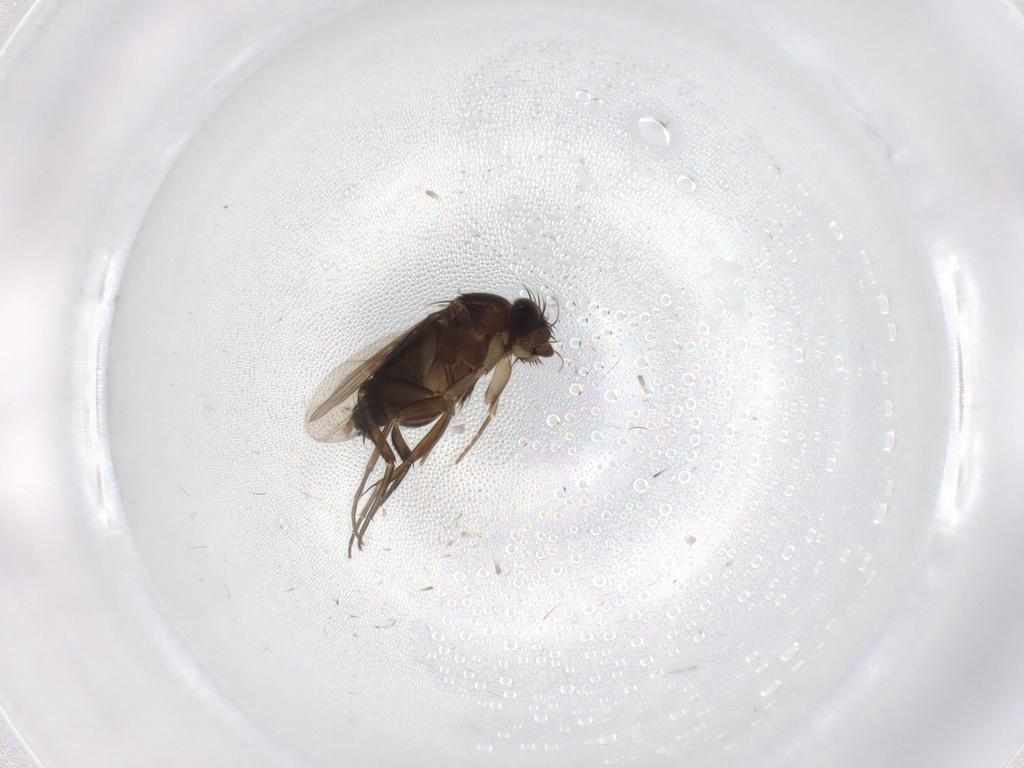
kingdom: Animalia
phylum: Arthropoda
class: Insecta
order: Diptera
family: Phoridae
